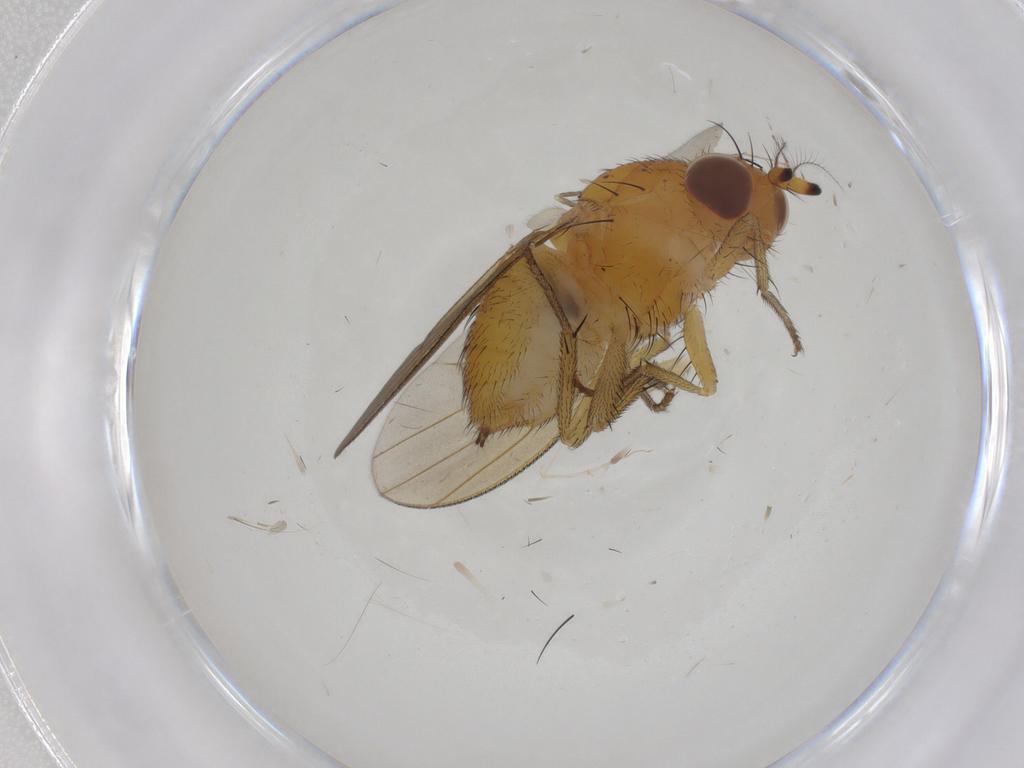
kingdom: Animalia
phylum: Arthropoda
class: Insecta
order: Diptera
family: Lauxaniidae
